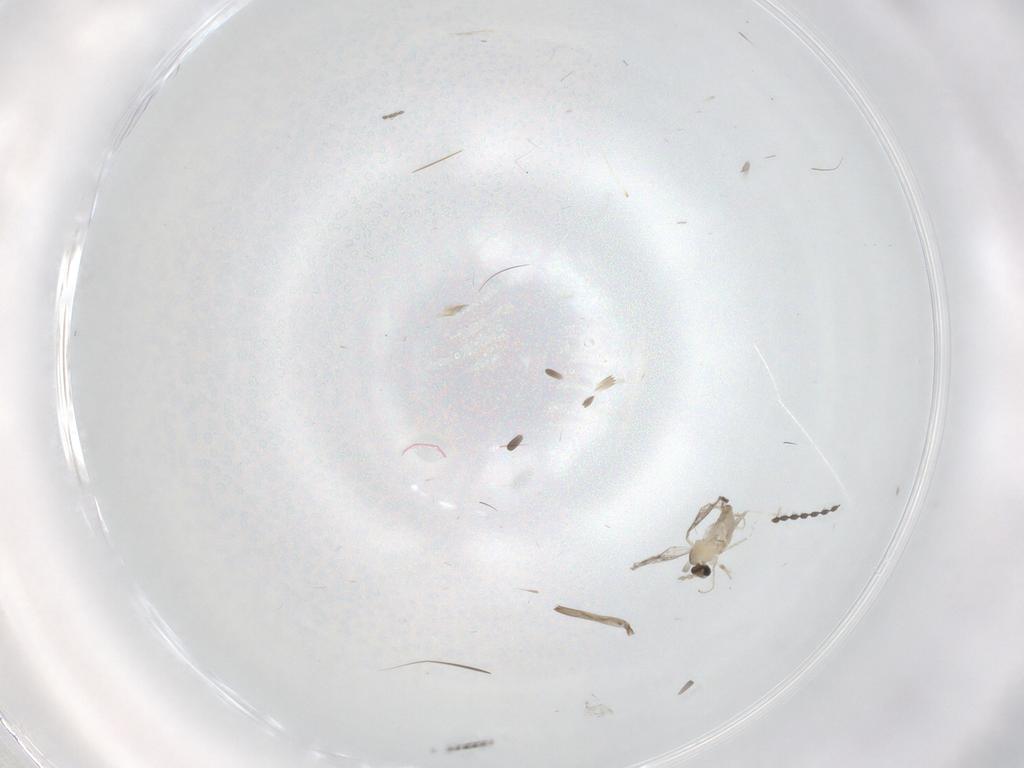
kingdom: Animalia
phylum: Arthropoda
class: Insecta
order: Diptera
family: Cecidomyiidae
